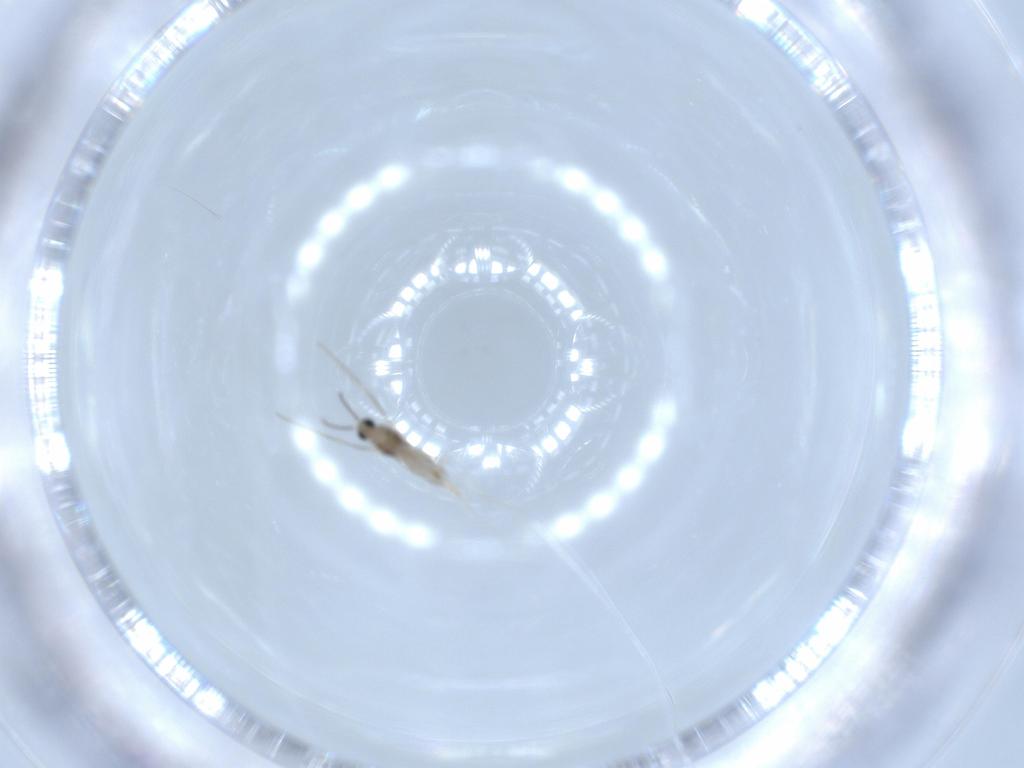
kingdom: Animalia
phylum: Arthropoda
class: Insecta
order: Diptera
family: Cecidomyiidae
